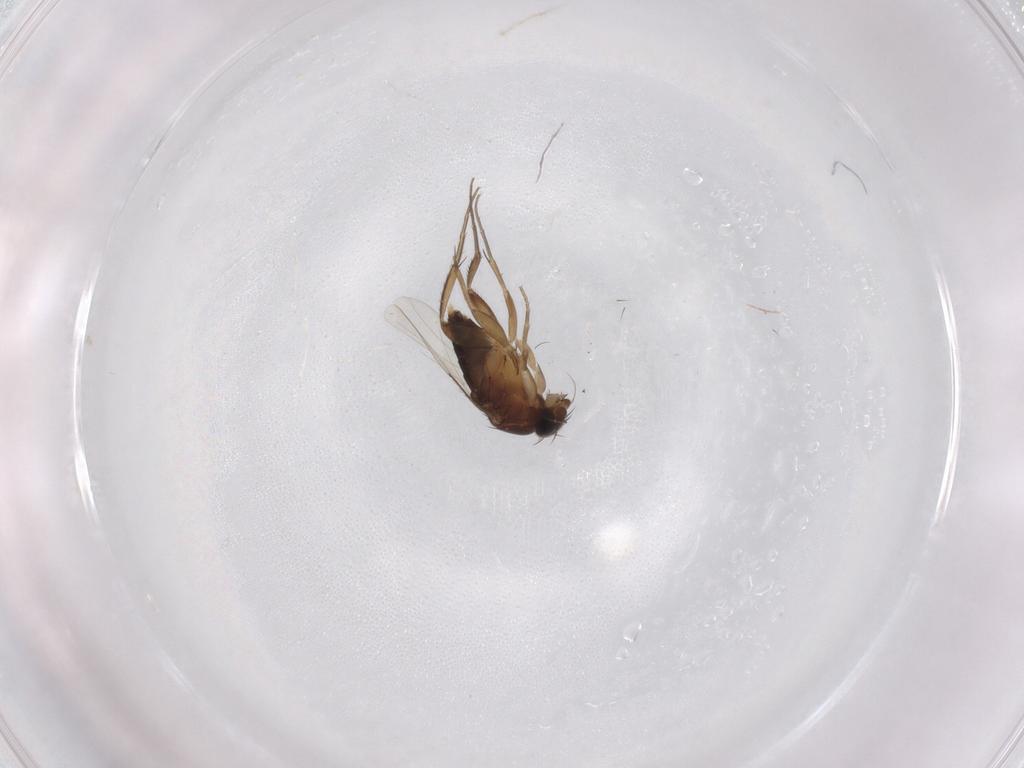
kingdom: Animalia
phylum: Arthropoda
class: Insecta
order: Diptera
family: Phoridae
